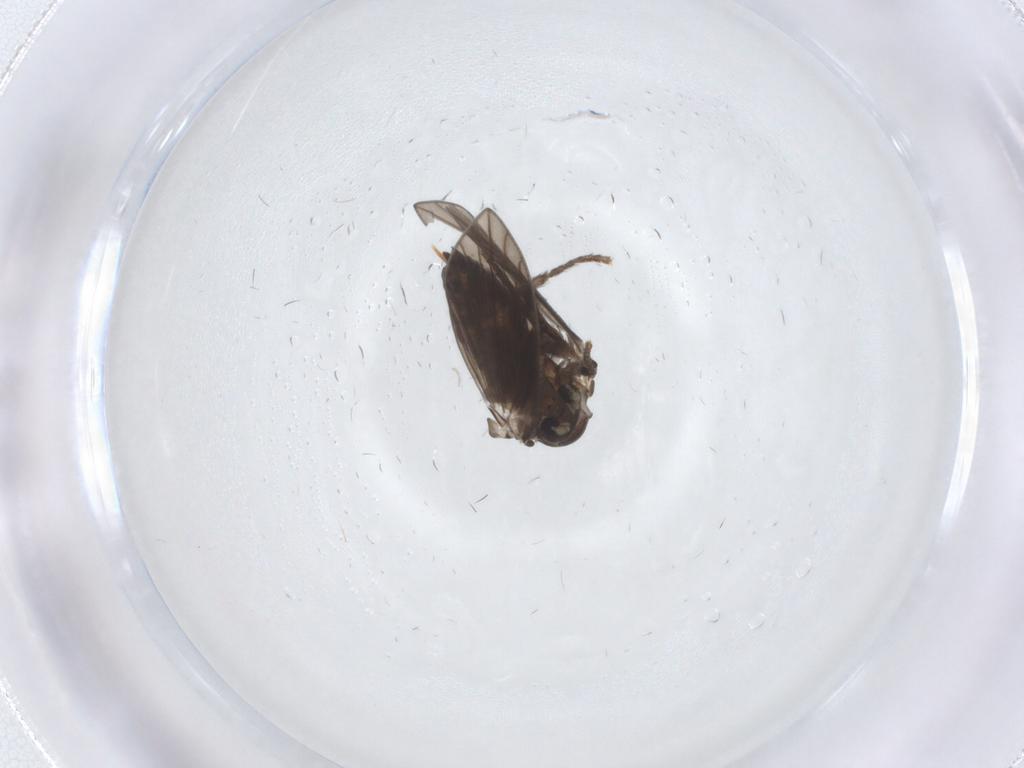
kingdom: Animalia
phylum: Arthropoda
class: Insecta
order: Diptera
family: Psychodidae
